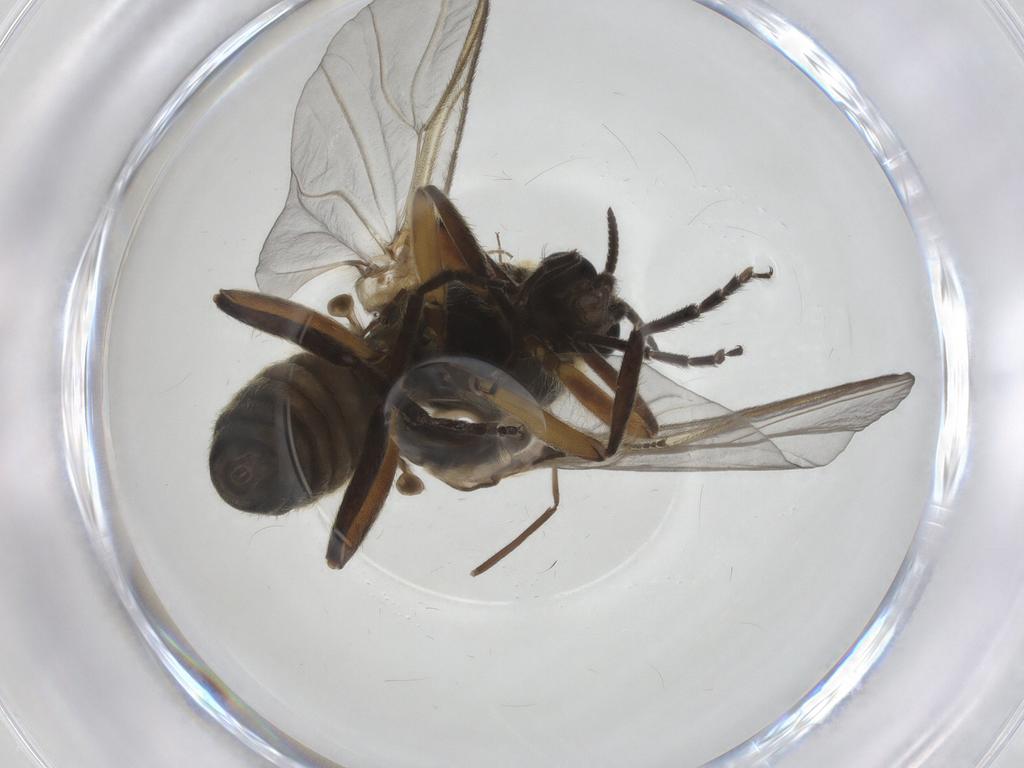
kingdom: Animalia
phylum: Arthropoda
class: Insecta
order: Diptera
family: Simuliidae
